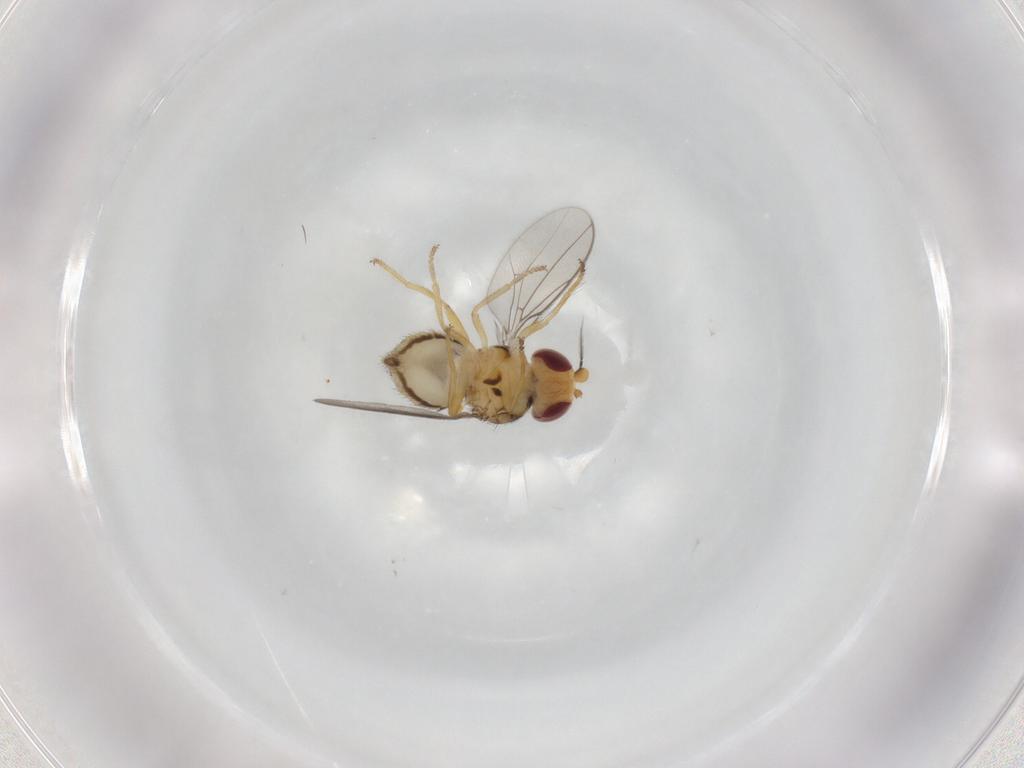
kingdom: Animalia
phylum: Arthropoda
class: Insecta
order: Diptera
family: Chloropidae
